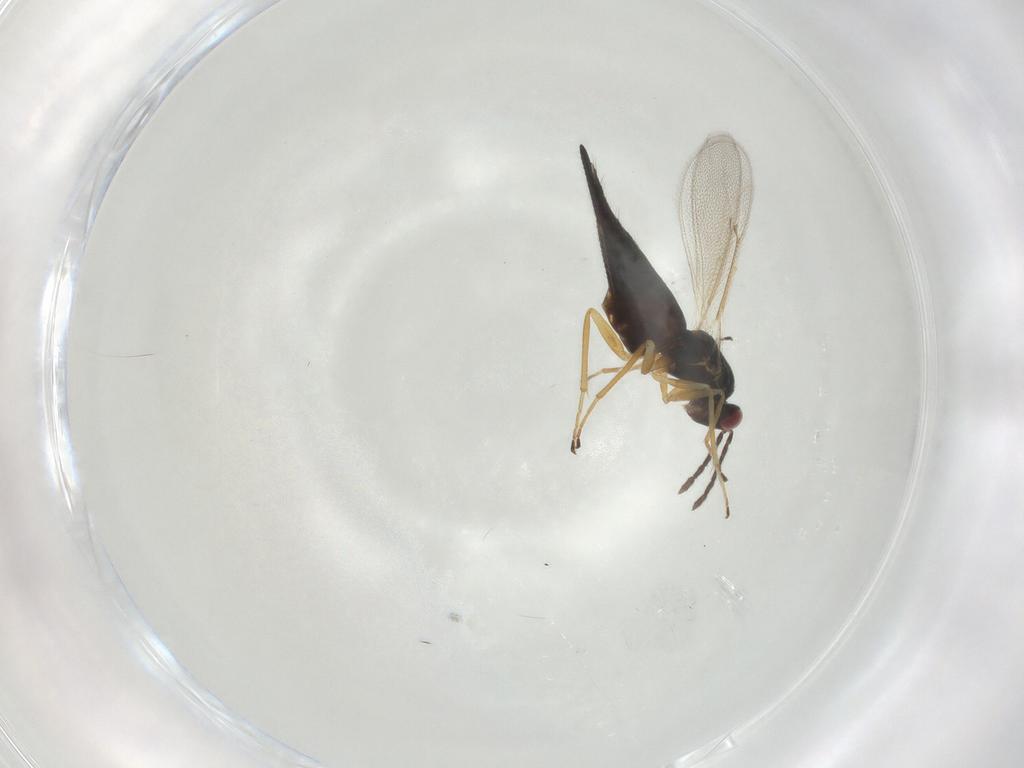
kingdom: Animalia
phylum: Arthropoda
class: Insecta
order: Hymenoptera
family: Eulophidae
